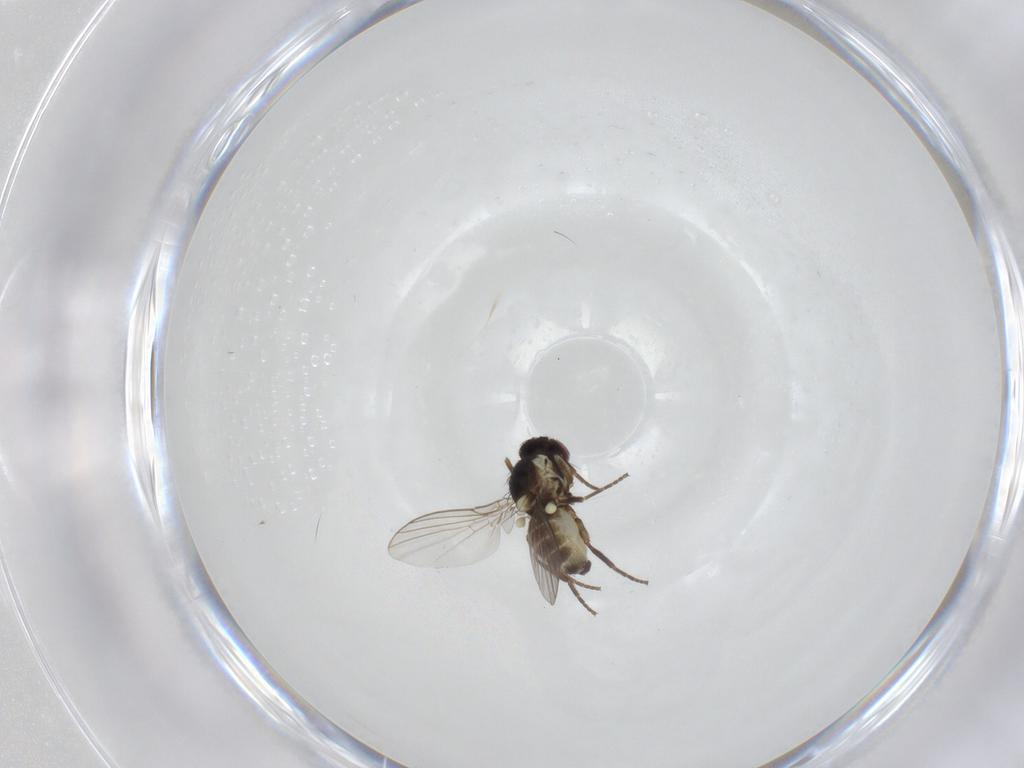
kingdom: Animalia
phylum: Arthropoda
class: Insecta
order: Diptera
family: Agromyzidae
